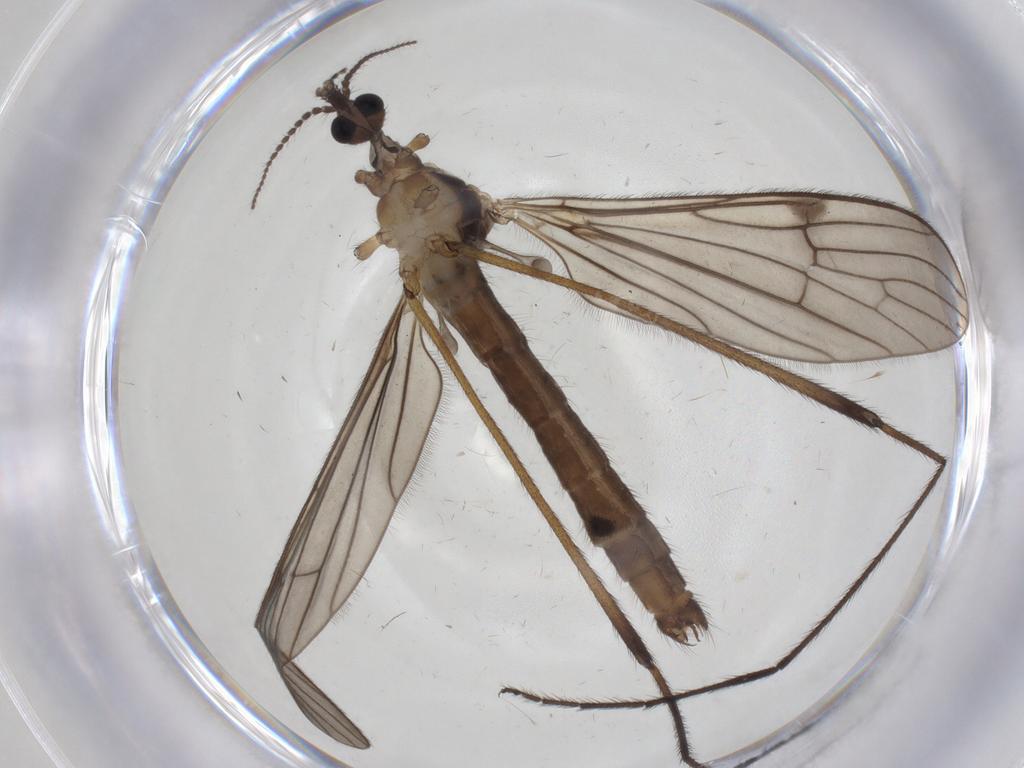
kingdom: Animalia
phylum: Arthropoda
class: Insecta
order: Diptera
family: Limoniidae
